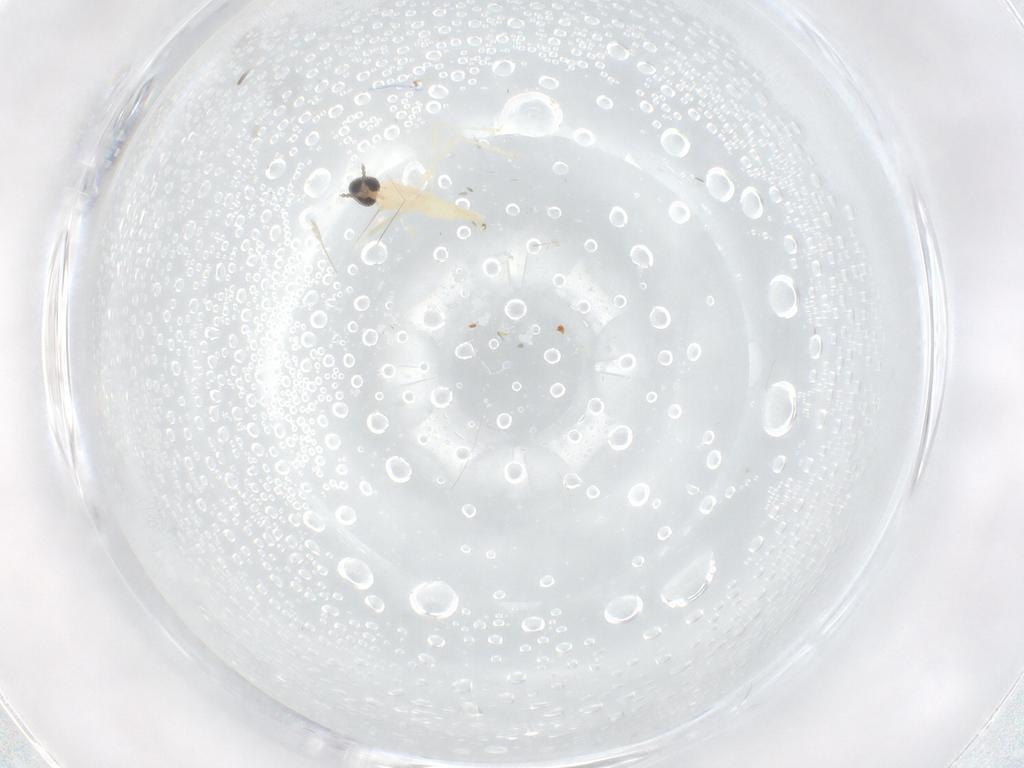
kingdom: Animalia
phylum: Arthropoda
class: Insecta
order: Diptera
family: Cecidomyiidae
